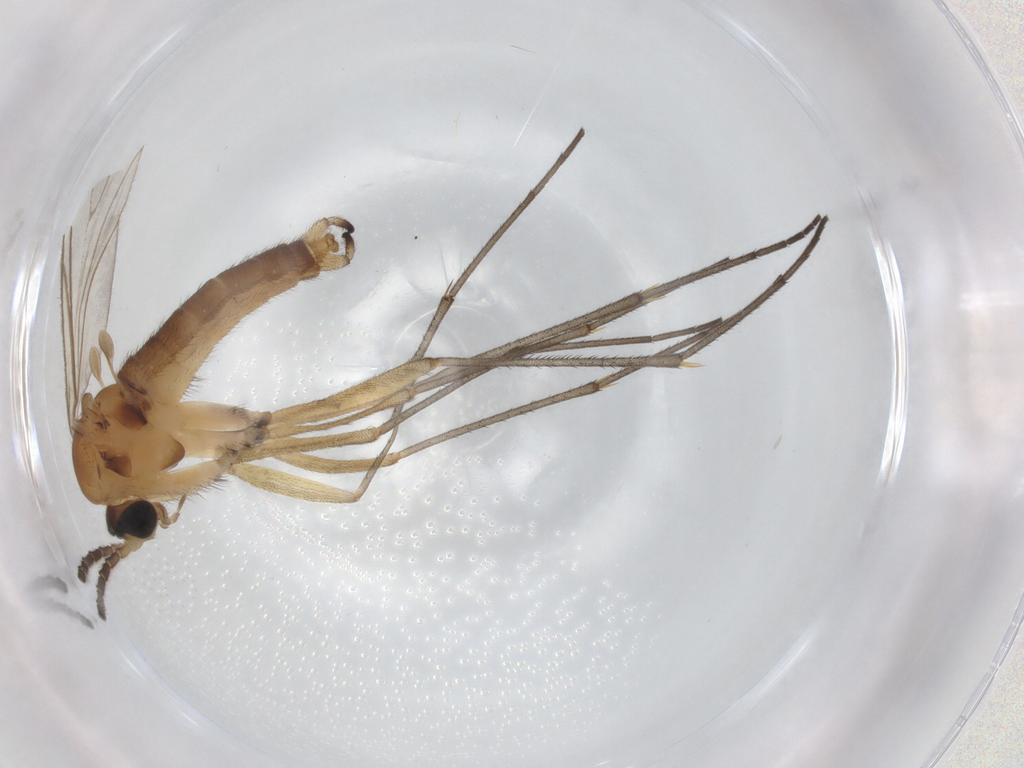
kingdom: Animalia
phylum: Arthropoda
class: Insecta
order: Diptera
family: Sciaridae
